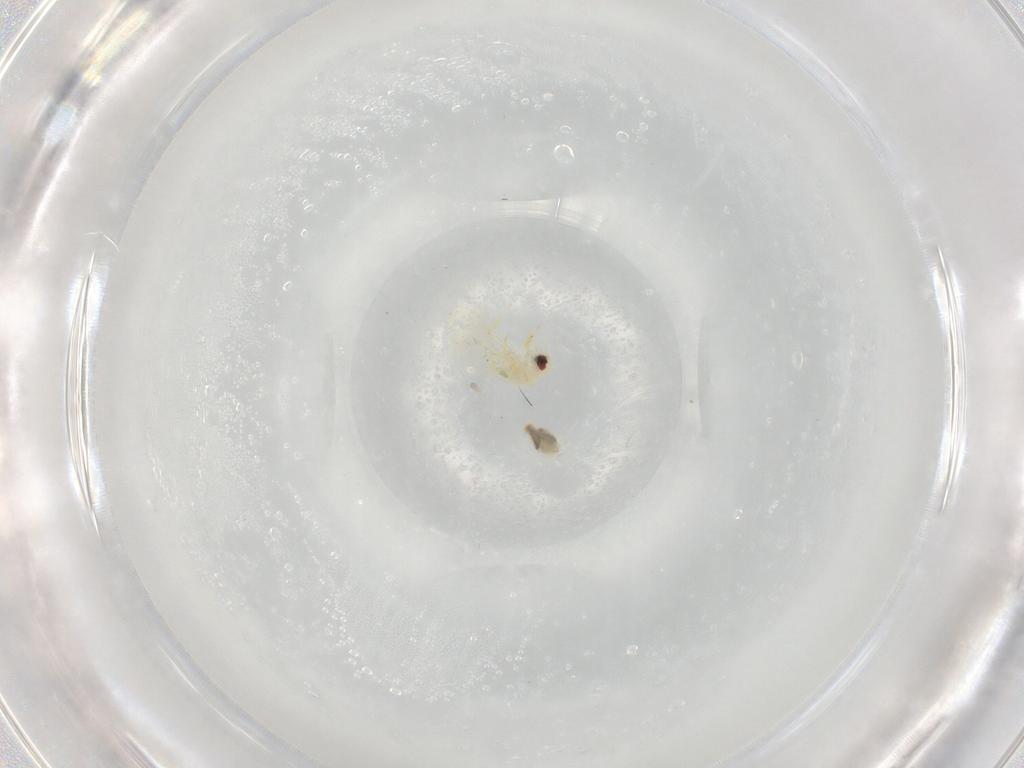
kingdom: Animalia
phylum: Arthropoda
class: Insecta
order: Hemiptera
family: Aleyrodidae
